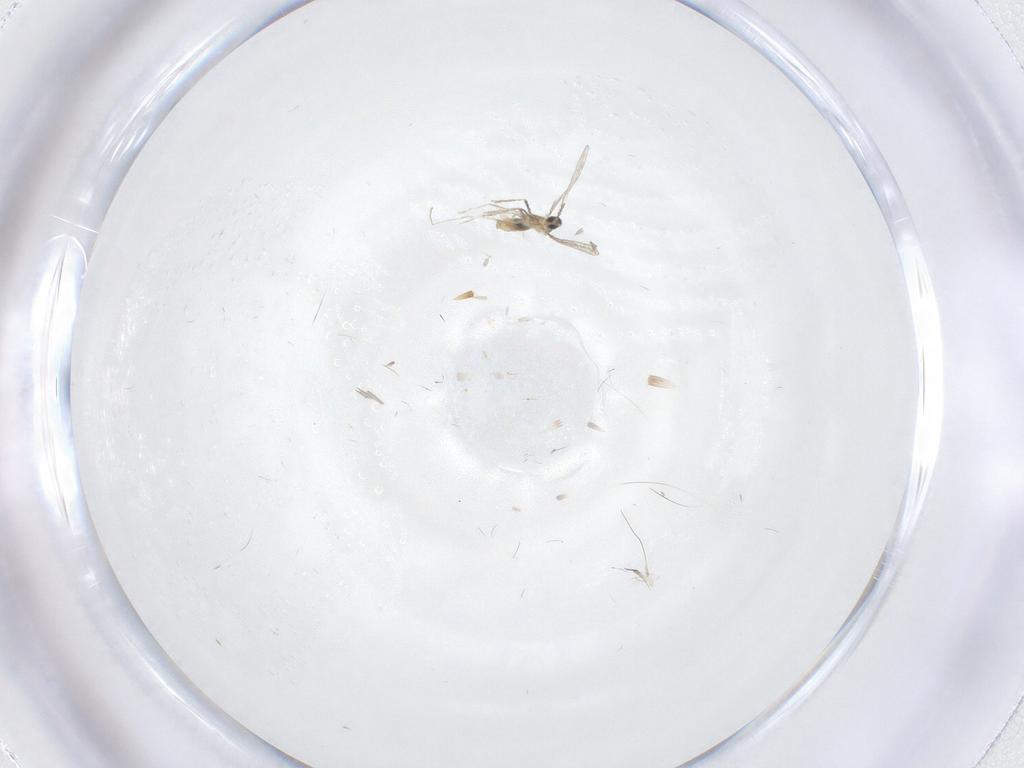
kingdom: Animalia
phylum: Arthropoda
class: Insecta
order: Diptera
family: Cecidomyiidae
